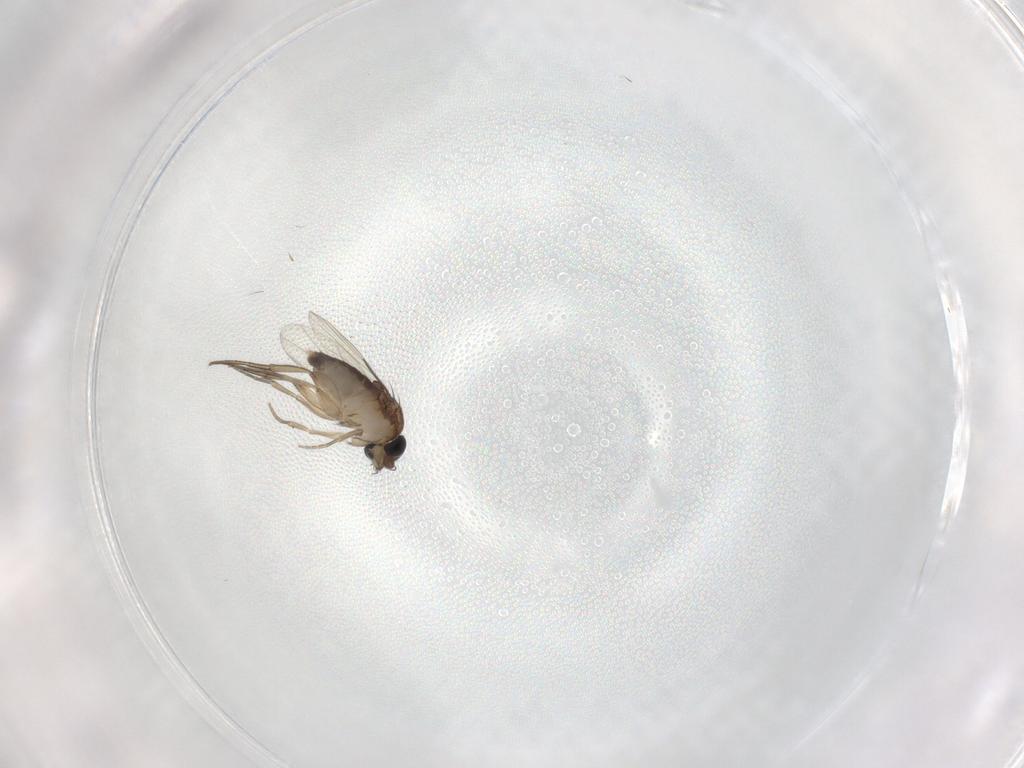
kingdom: Animalia
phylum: Arthropoda
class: Insecta
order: Diptera
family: Phoridae
